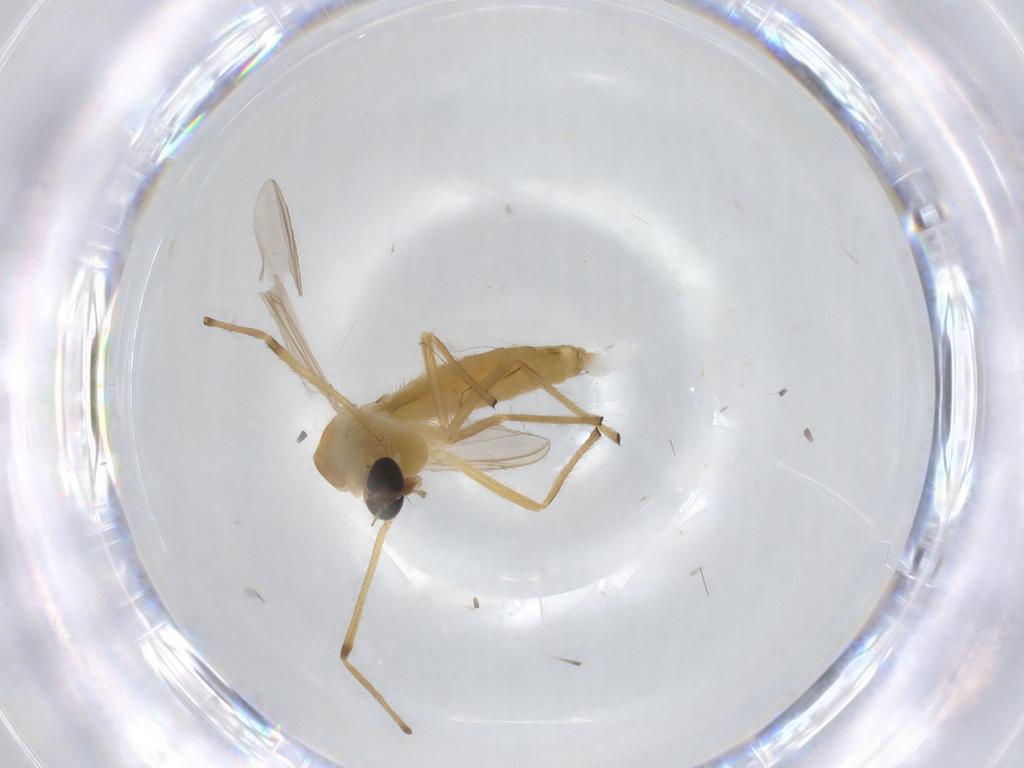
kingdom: Animalia
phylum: Arthropoda
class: Insecta
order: Diptera
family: Chironomidae
